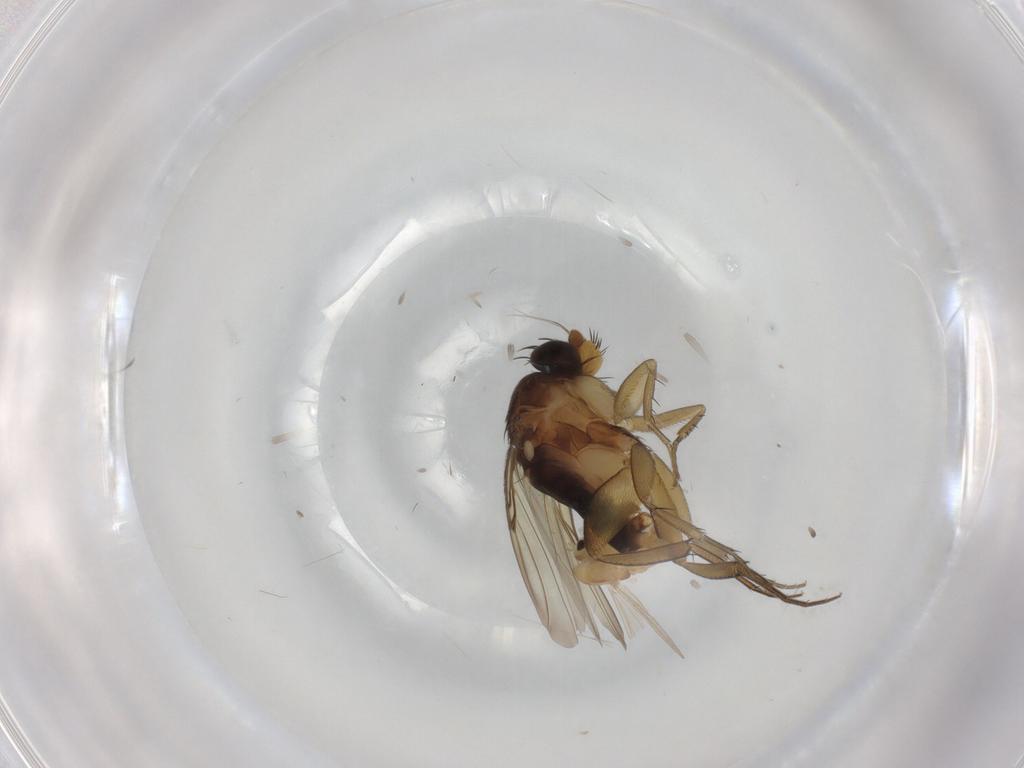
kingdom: Animalia
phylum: Arthropoda
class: Insecta
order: Diptera
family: Chironomidae
